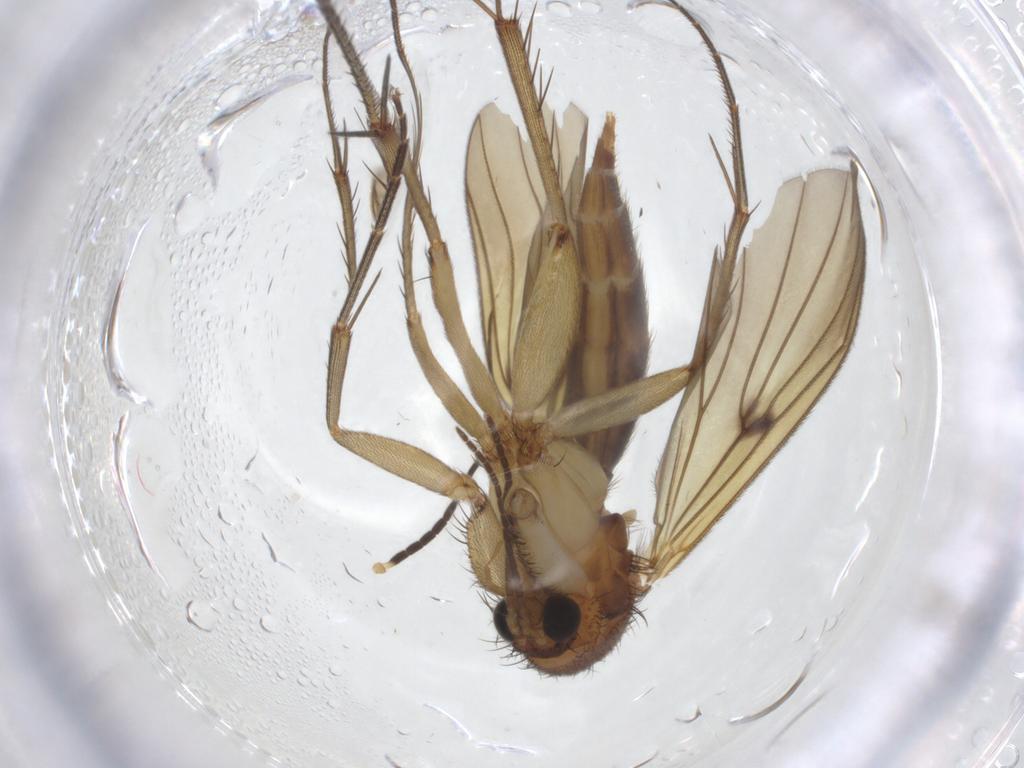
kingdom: Animalia
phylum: Arthropoda
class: Insecta
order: Diptera
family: Mycetophilidae
